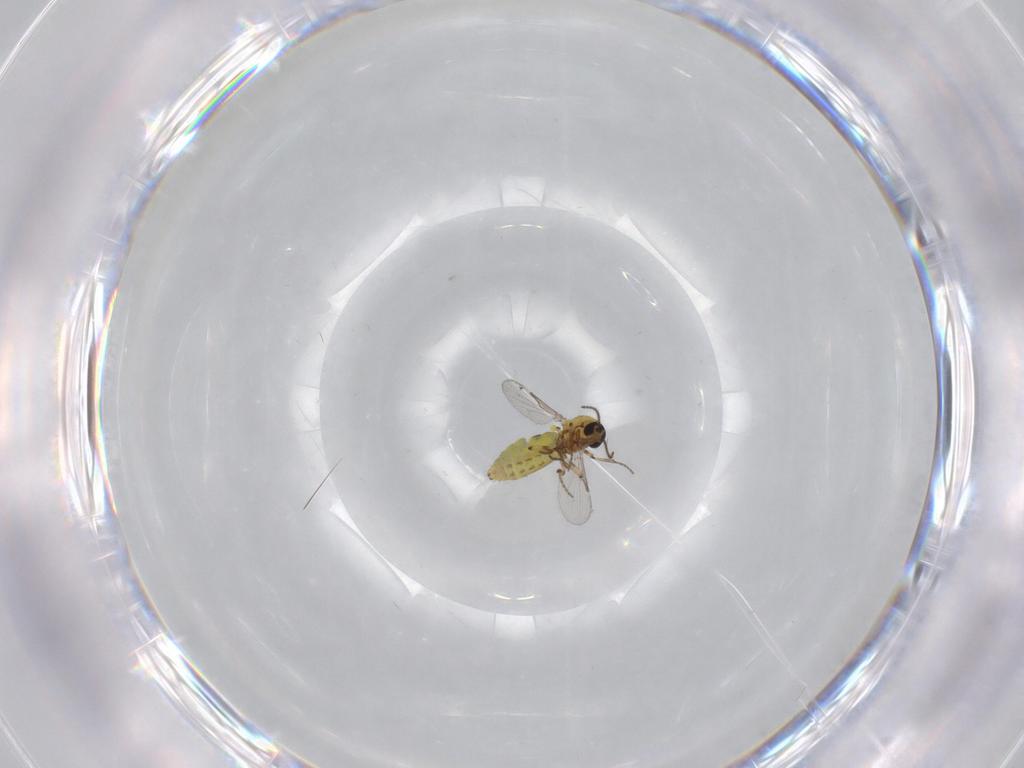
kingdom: Animalia
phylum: Arthropoda
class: Insecta
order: Diptera
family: Ceratopogonidae
